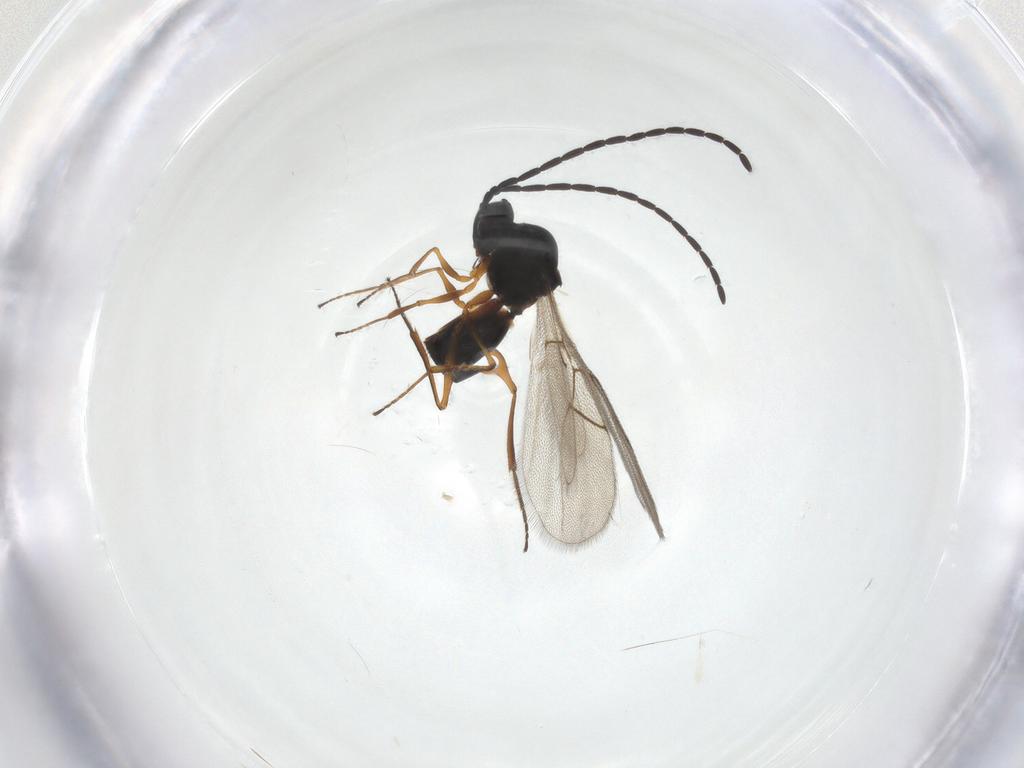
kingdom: Animalia
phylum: Arthropoda
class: Insecta
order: Hymenoptera
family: Figitidae
